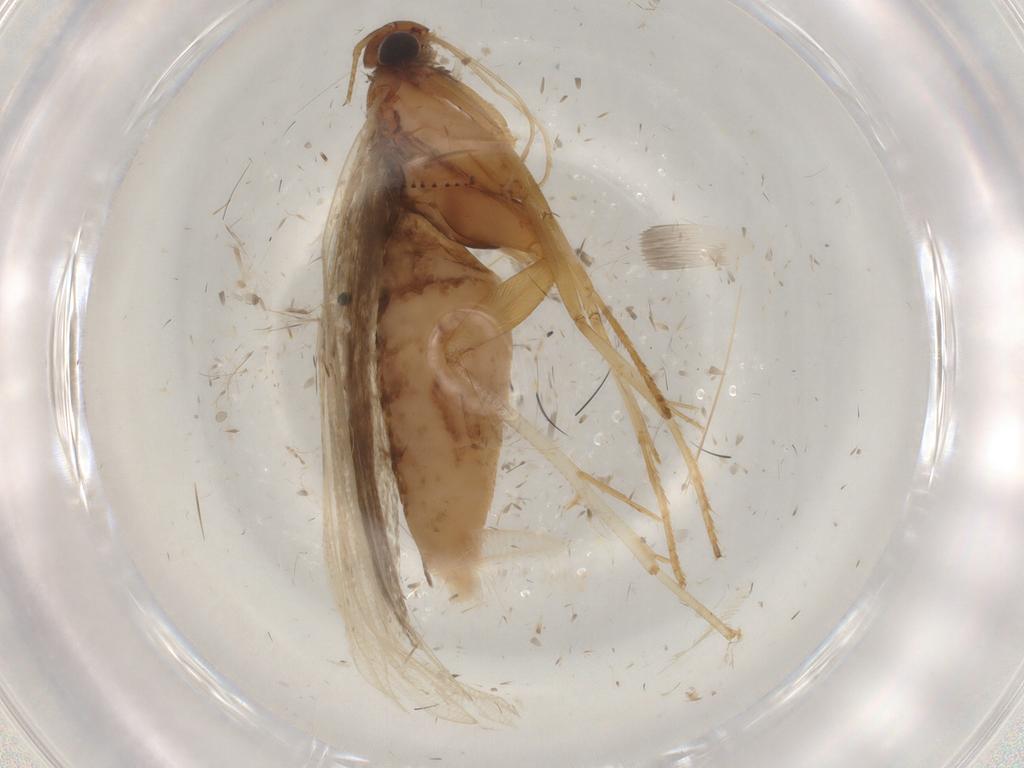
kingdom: Animalia
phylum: Arthropoda
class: Insecta
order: Lepidoptera
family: Gelechiidae
